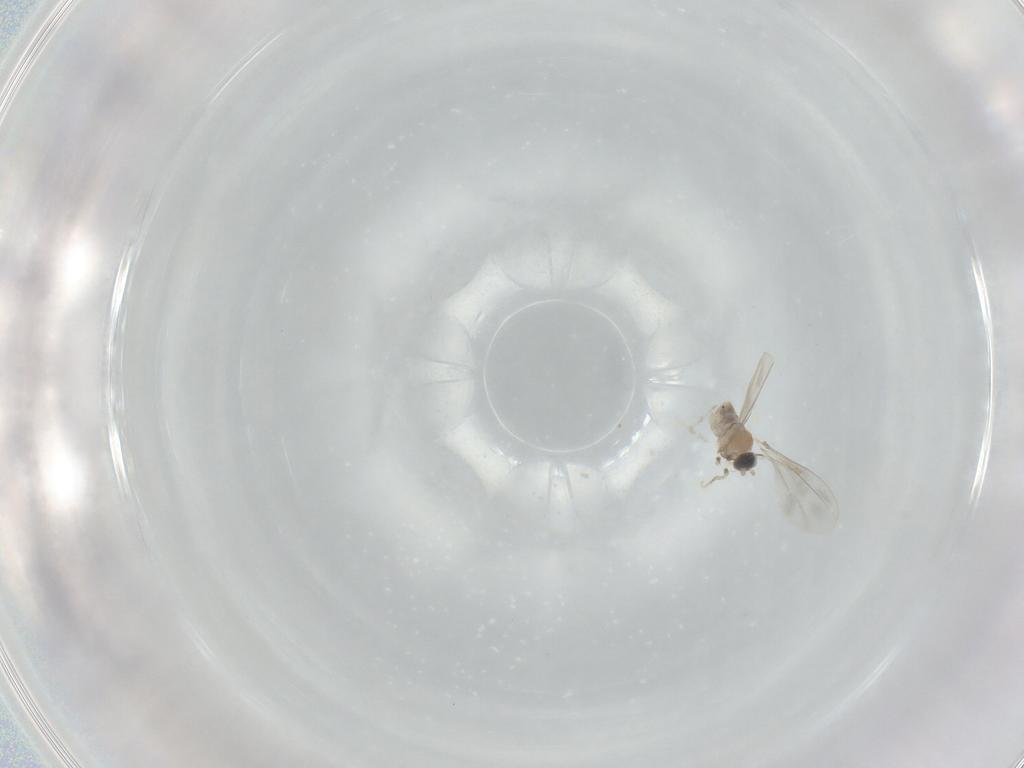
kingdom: Animalia
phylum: Arthropoda
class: Insecta
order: Diptera
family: Cecidomyiidae
